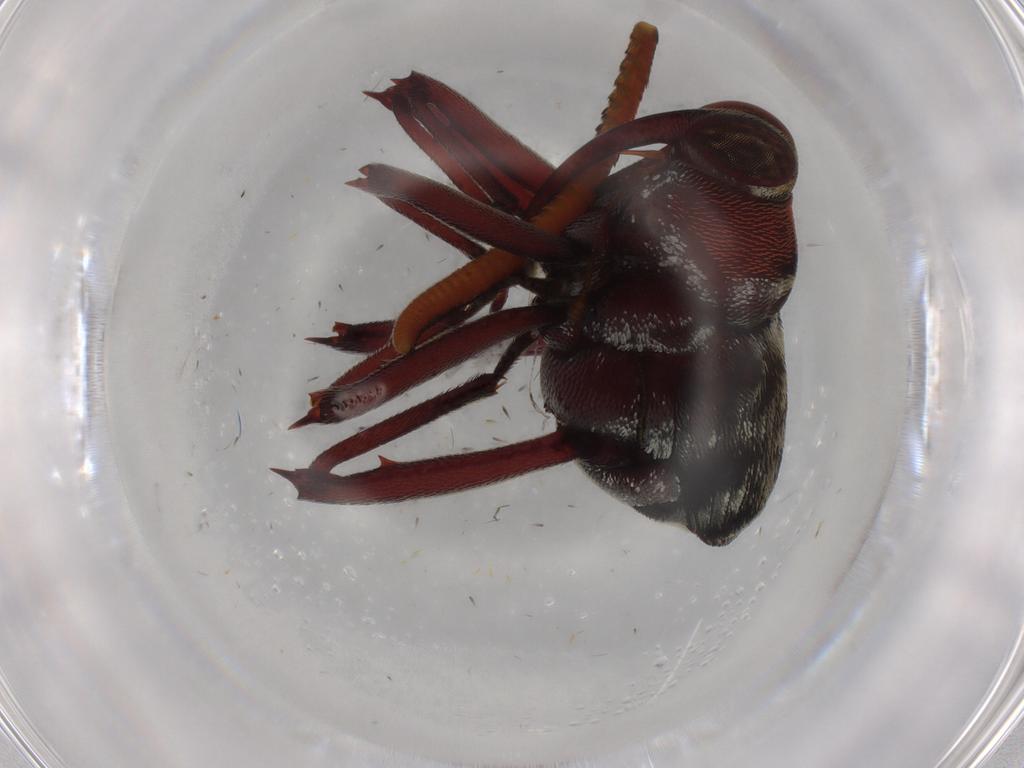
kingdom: Animalia
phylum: Arthropoda
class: Insecta
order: Coleoptera
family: Curculionidae
